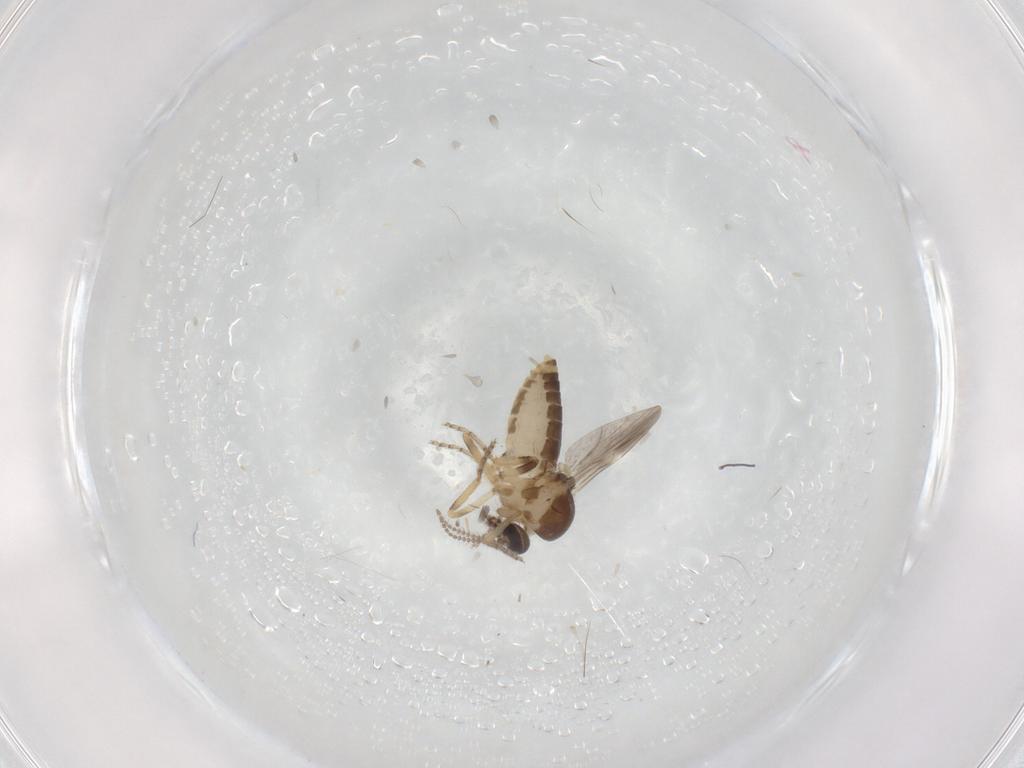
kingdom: Animalia
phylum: Arthropoda
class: Insecta
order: Diptera
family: Ceratopogonidae
